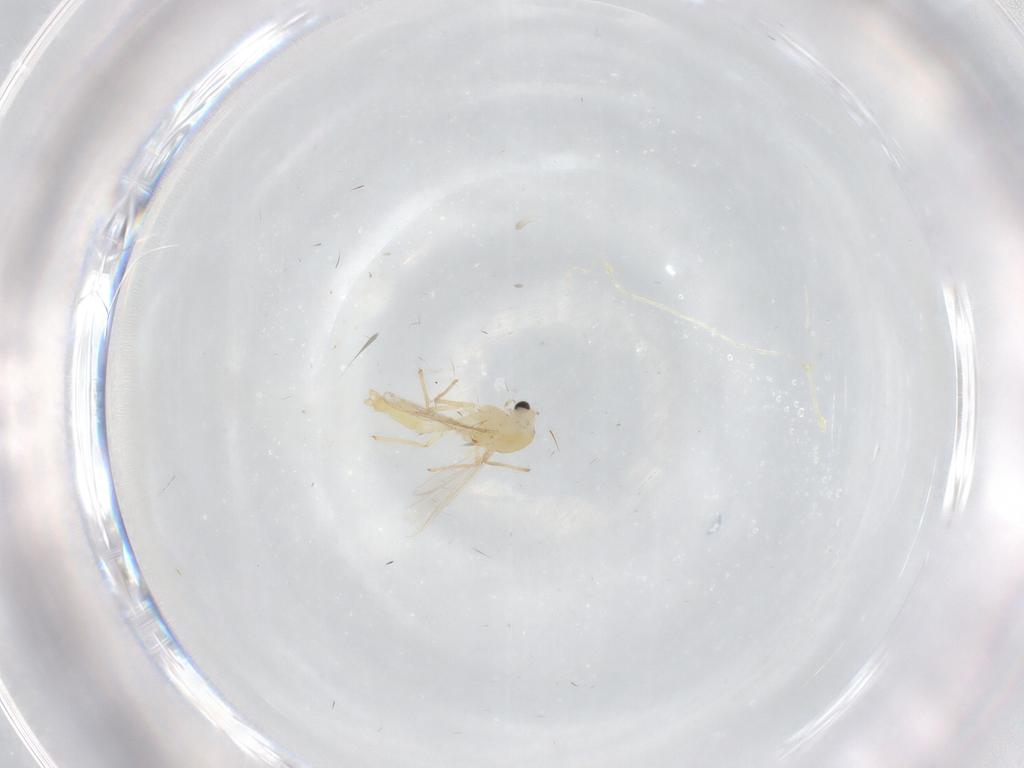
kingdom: Animalia
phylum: Arthropoda
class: Insecta
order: Diptera
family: Chironomidae
